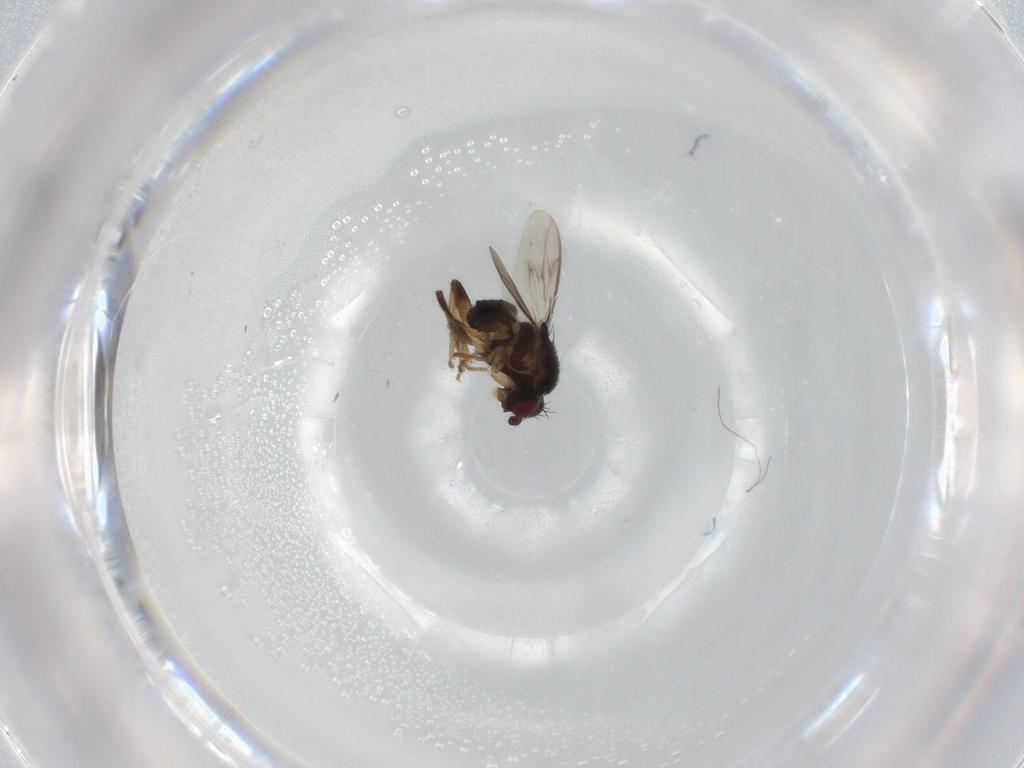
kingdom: Animalia
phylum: Arthropoda
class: Insecta
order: Diptera
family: Sphaeroceridae
